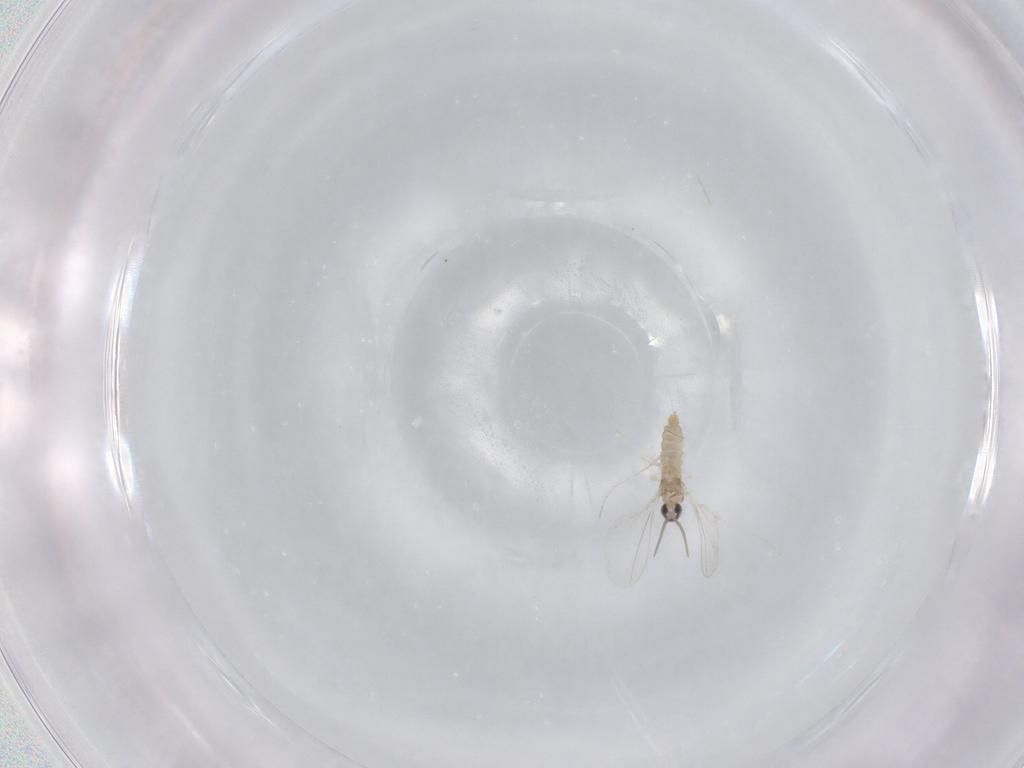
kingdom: Animalia
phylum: Arthropoda
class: Insecta
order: Diptera
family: Cecidomyiidae
